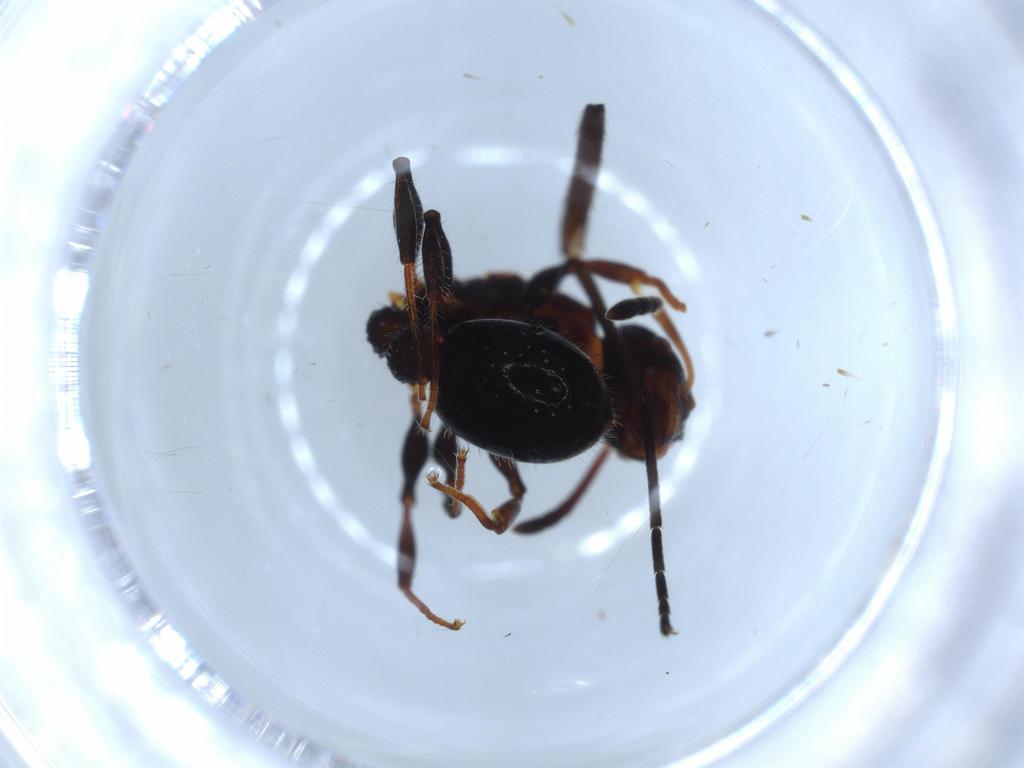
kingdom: Animalia
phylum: Arthropoda
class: Insecta
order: Hymenoptera
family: Formicidae
